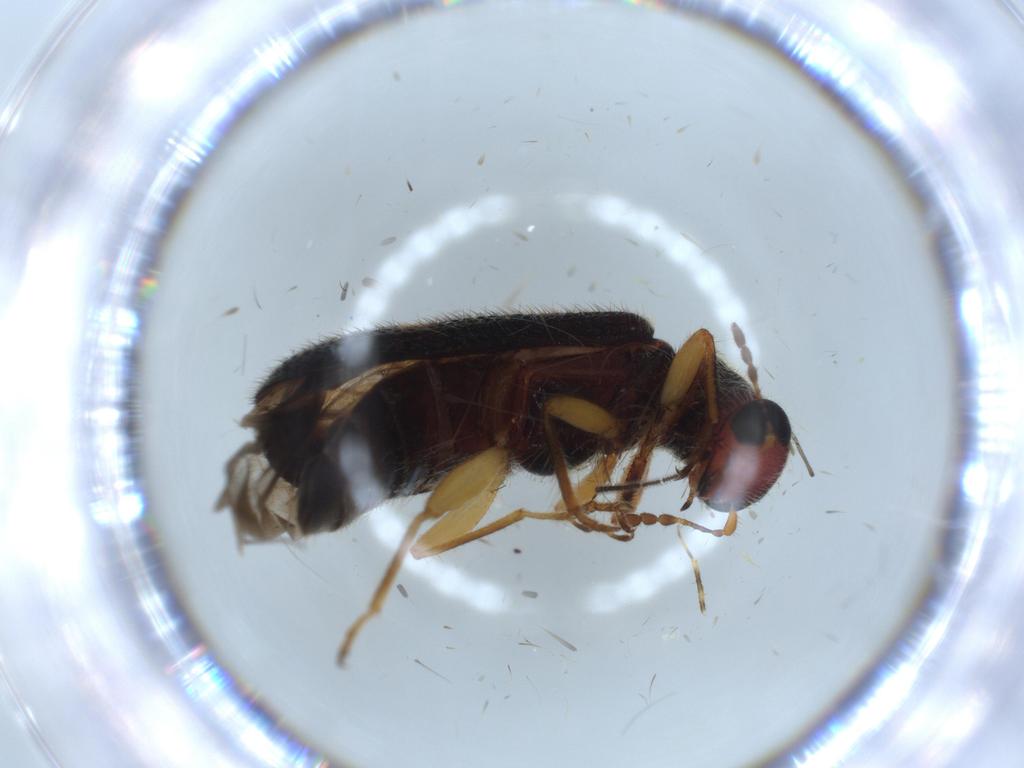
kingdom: Animalia
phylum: Arthropoda
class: Insecta
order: Coleoptera
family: Cleridae
